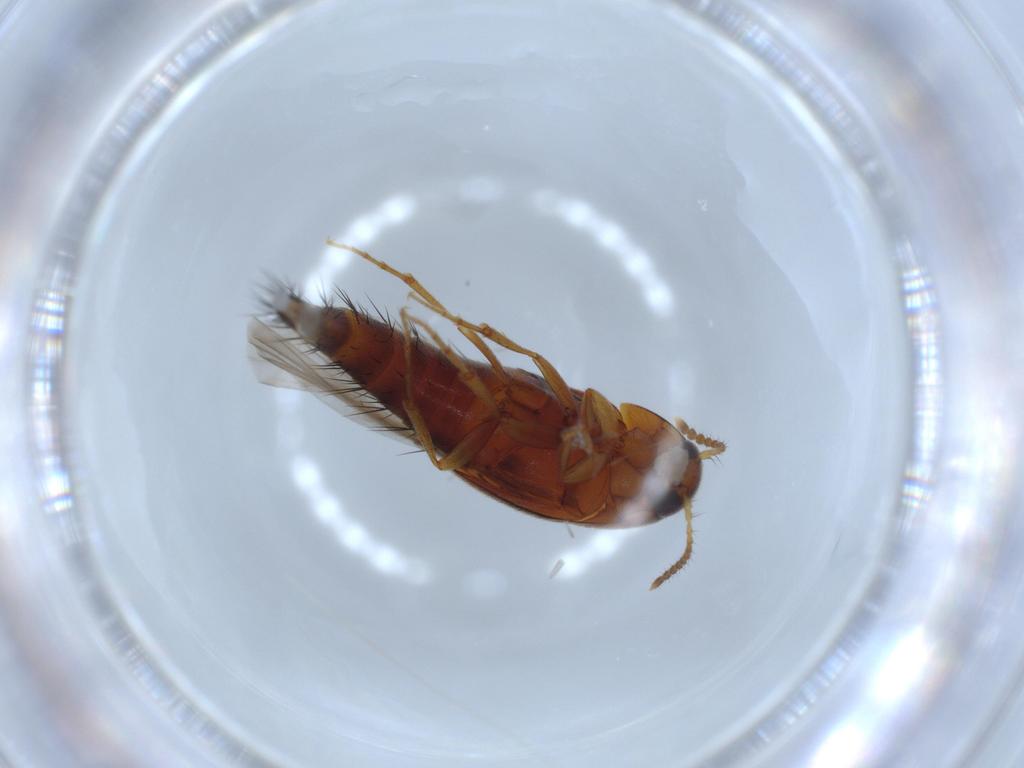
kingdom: Animalia
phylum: Arthropoda
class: Insecta
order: Coleoptera
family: Staphylinidae
